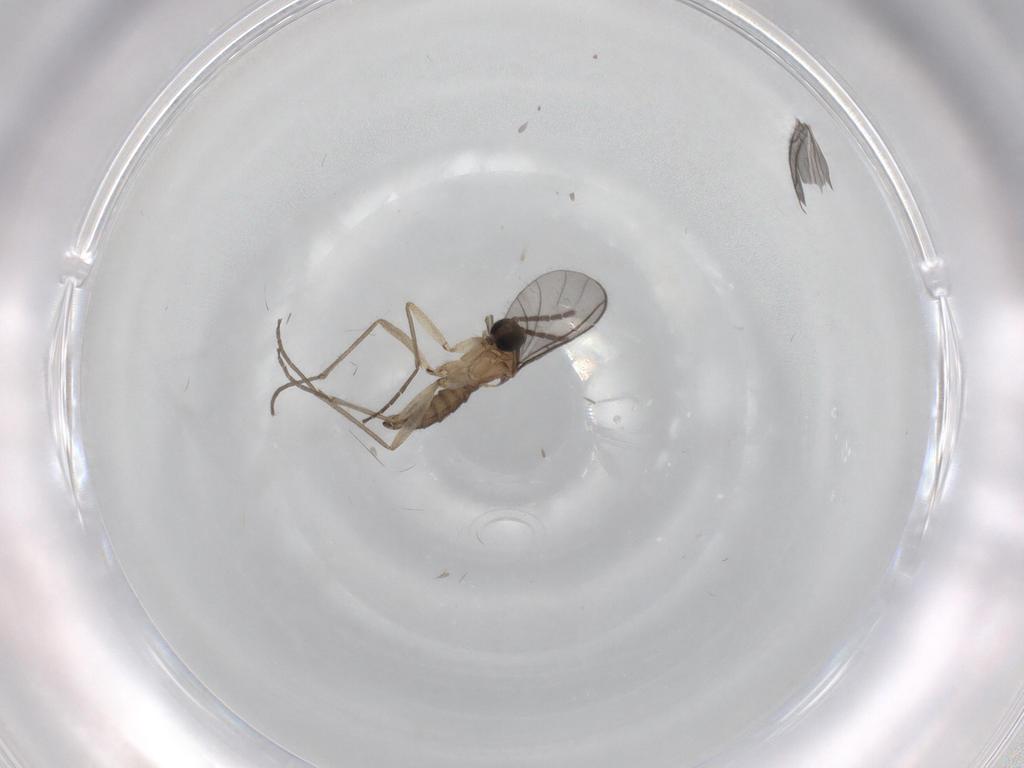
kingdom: Animalia
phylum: Arthropoda
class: Insecta
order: Diptera
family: Sciaridae
